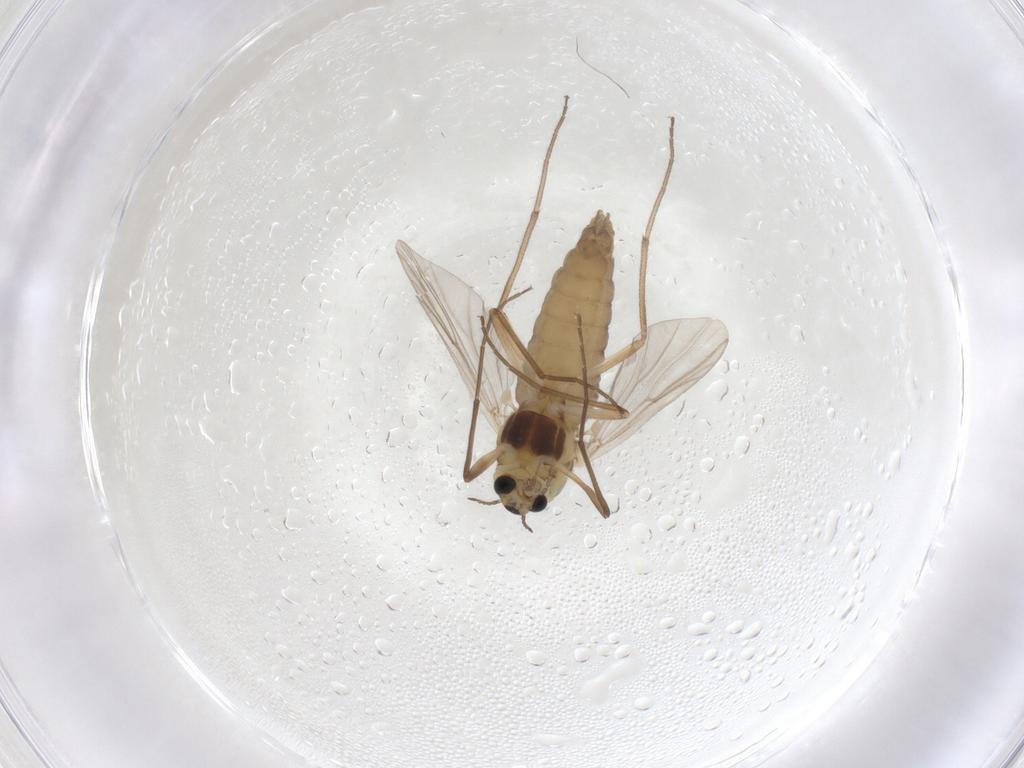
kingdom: Animalia
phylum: Arthropoda
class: Insecta
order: Diptera
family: Chironomidae
